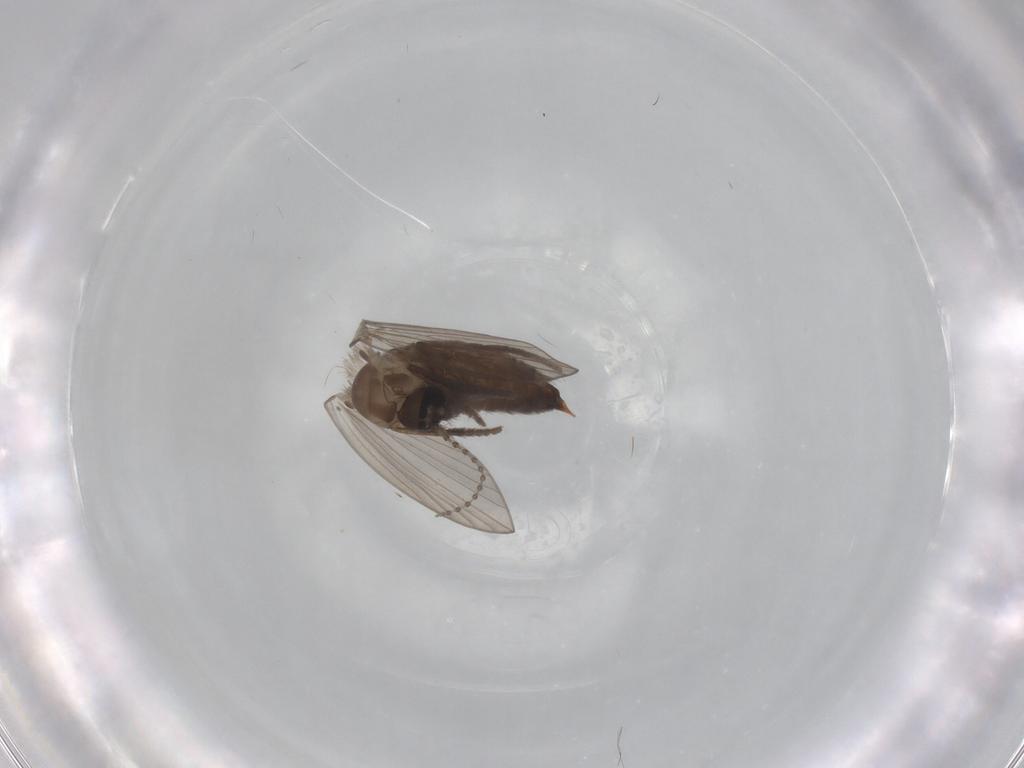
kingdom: Animalia
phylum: Arthropoda
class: Insecta
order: Diptera
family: Psychodidae
